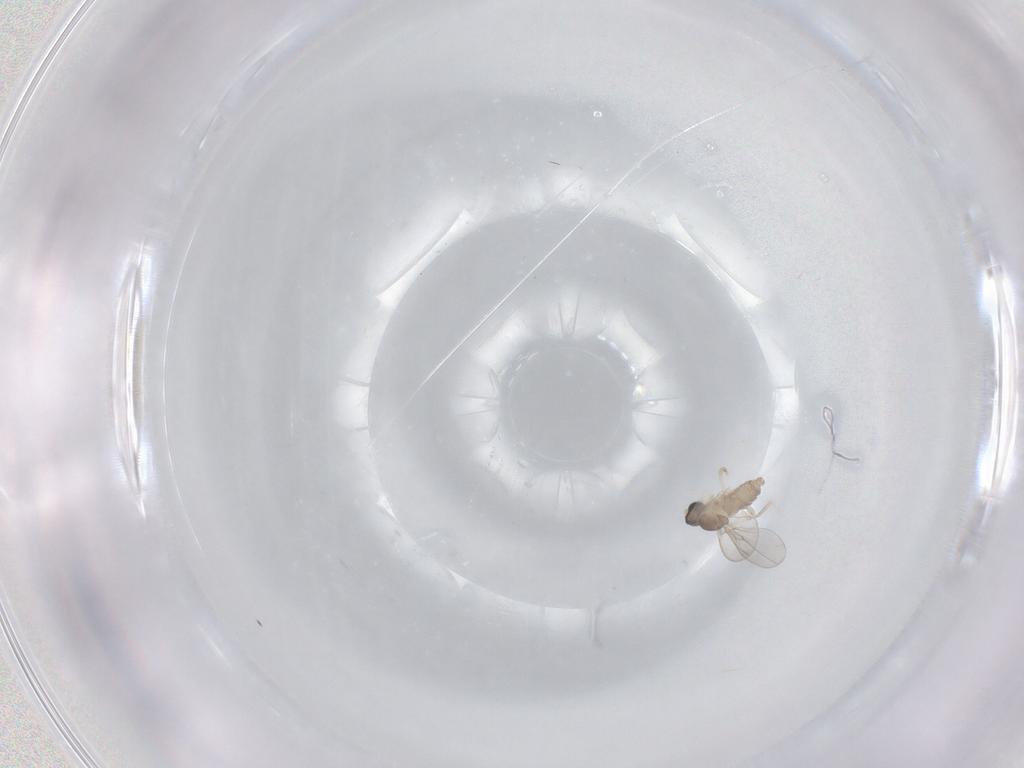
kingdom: Animalia
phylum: Arthropoda
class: Insecta
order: Diptera
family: Cecidomyiidae
